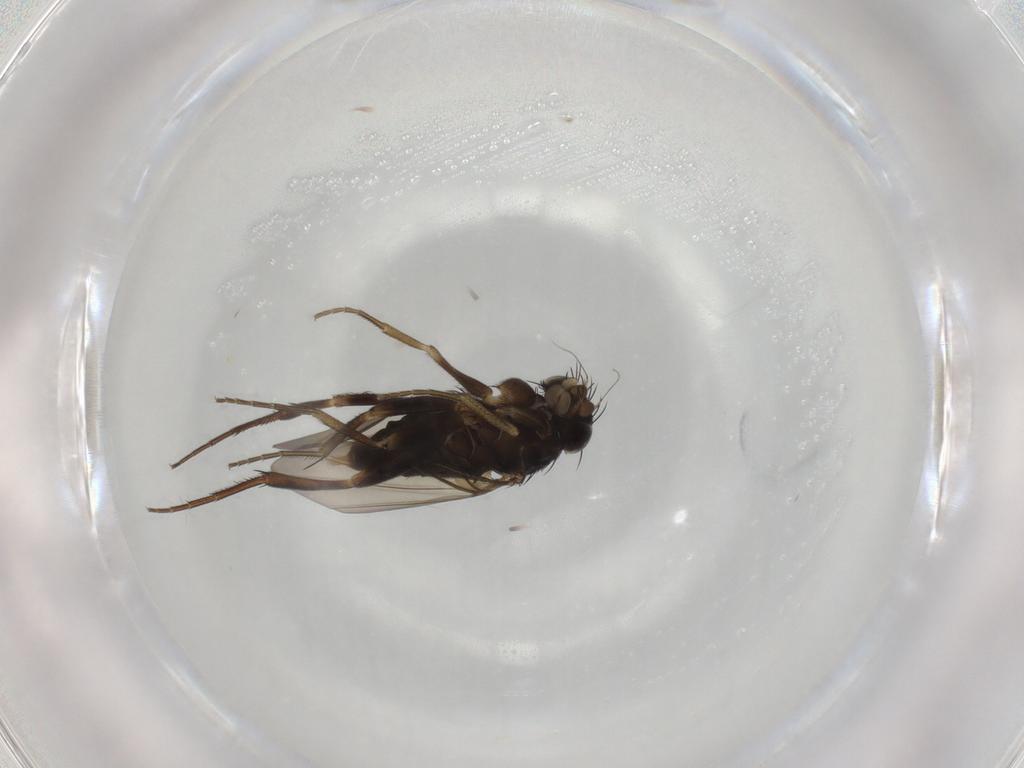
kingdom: Animalia
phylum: Arthropoda
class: Insecta
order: Diptera
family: Phoridae
